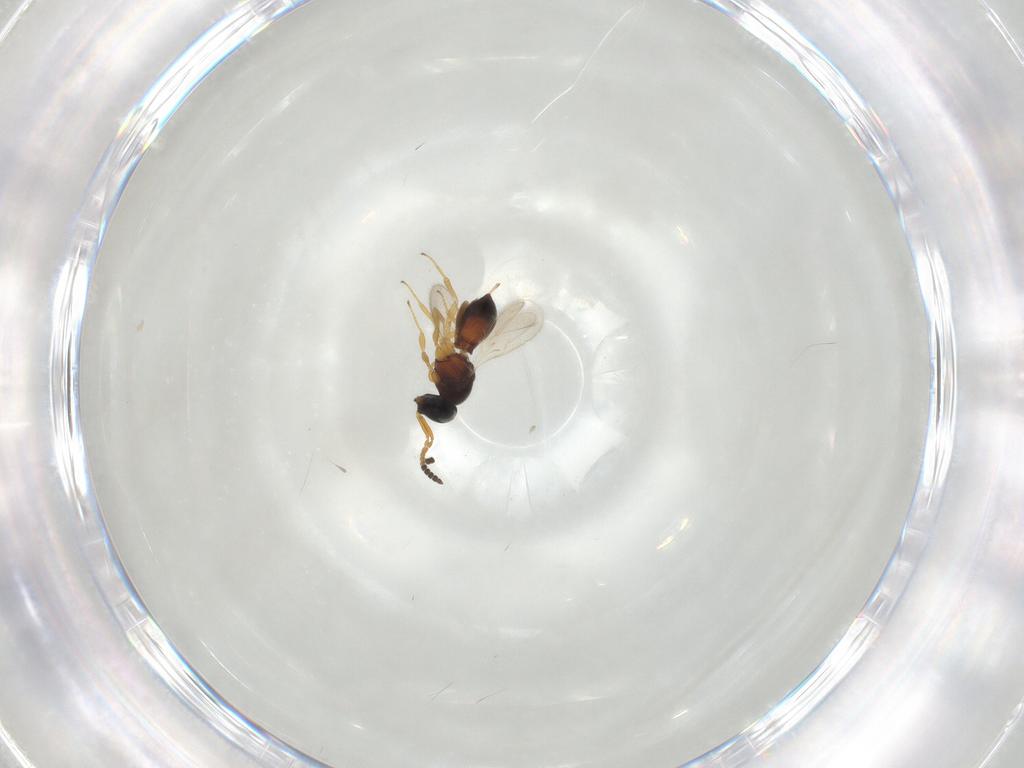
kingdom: Animalia
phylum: Arthropoda
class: Insecta
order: Hymenoptera
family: Scelionidae
